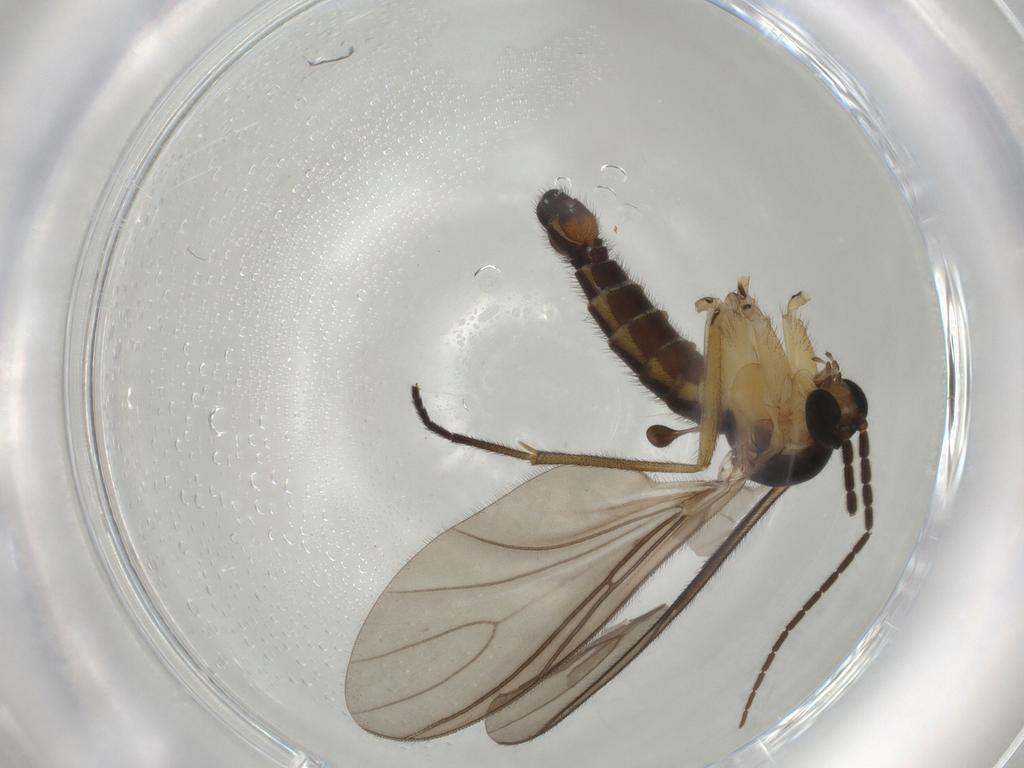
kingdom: Animalia
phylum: Arthropoda
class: Insecta
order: Diptera
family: Sciaridae
